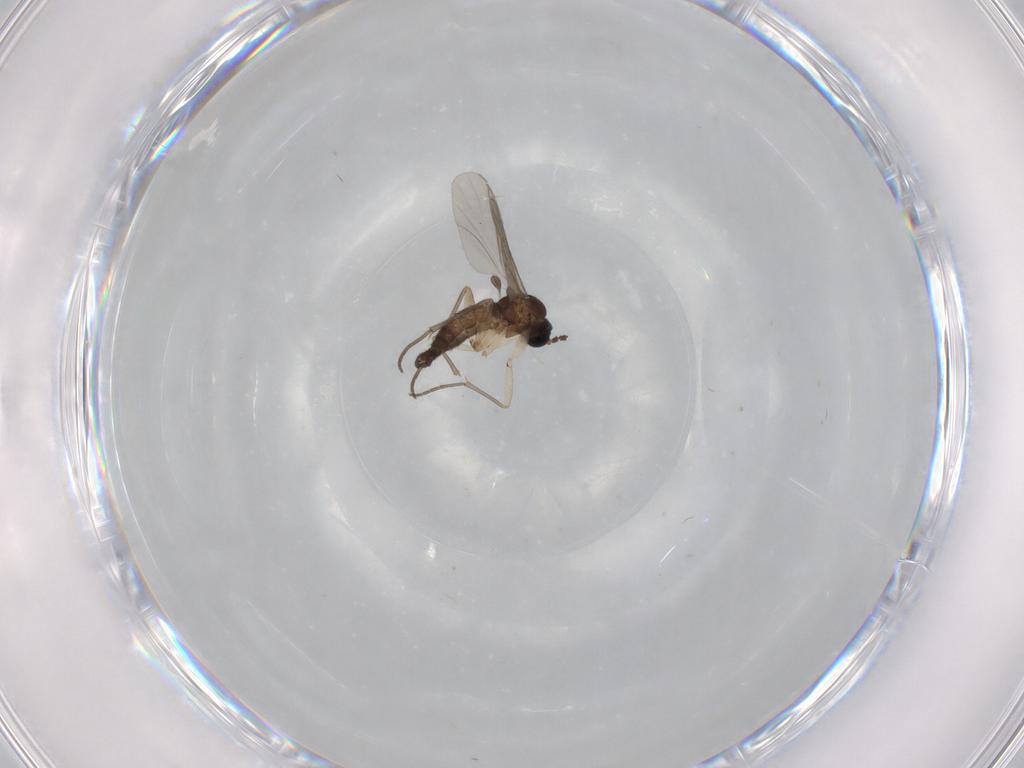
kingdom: Animalia
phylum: Arthropoda
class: Insecta
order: Diptera
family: Sciaridae
